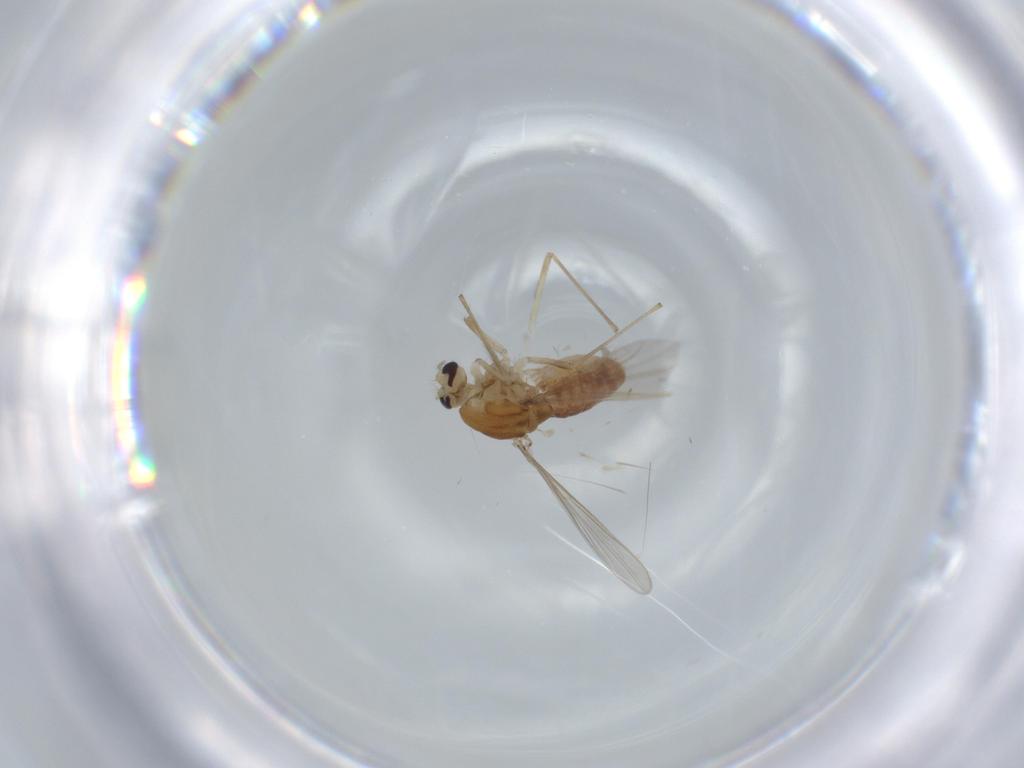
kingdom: Animalia
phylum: Arthropoda
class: Insecta
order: Diptera
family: Chironomidae
